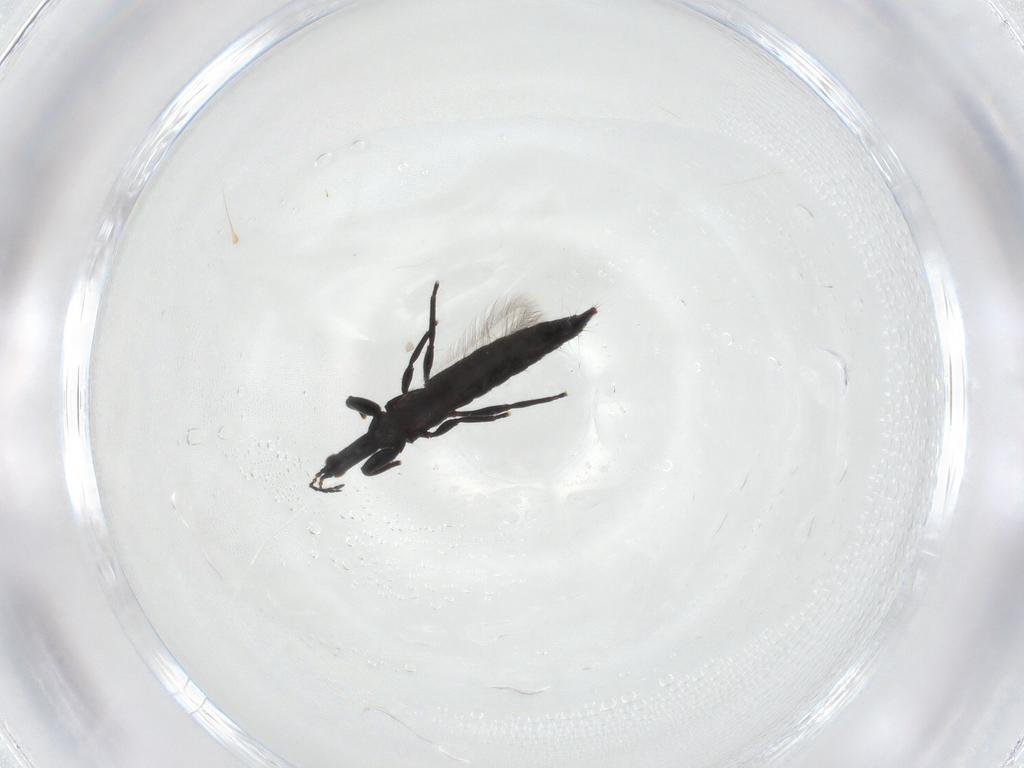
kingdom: Animalia
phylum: Arthropoda
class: Insecta
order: Thysanoptera
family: Phlaeothripidae
